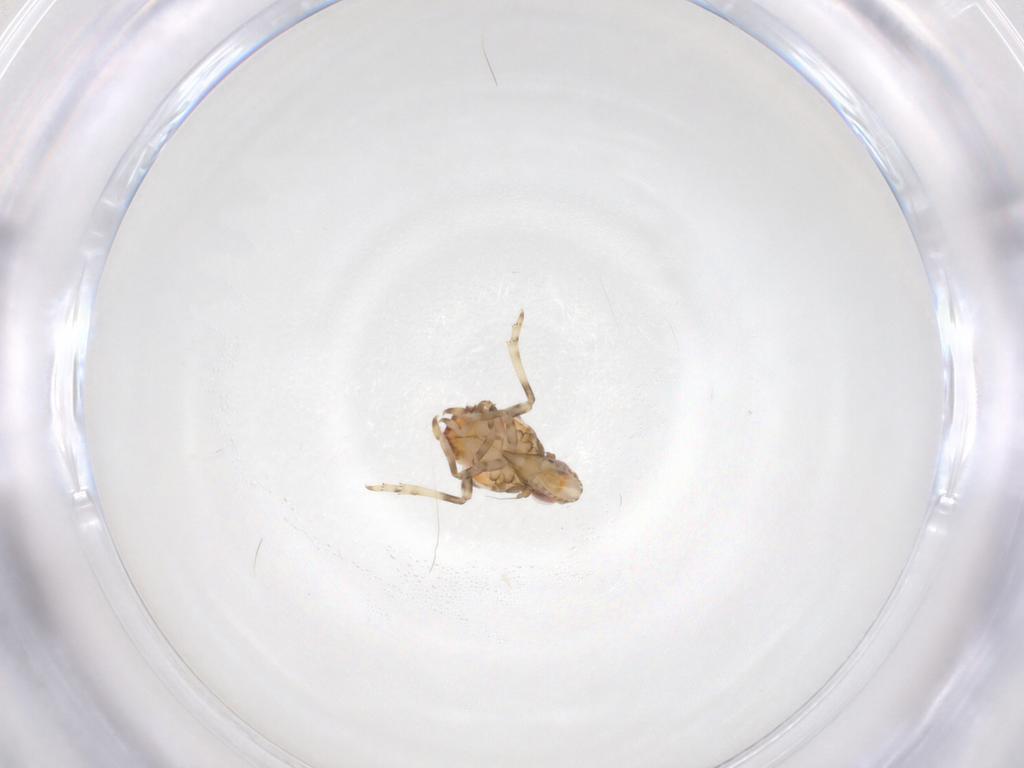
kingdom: Animalia
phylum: Arthropoda
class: Insecta
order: Hemiptera
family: Tropiduchidae
